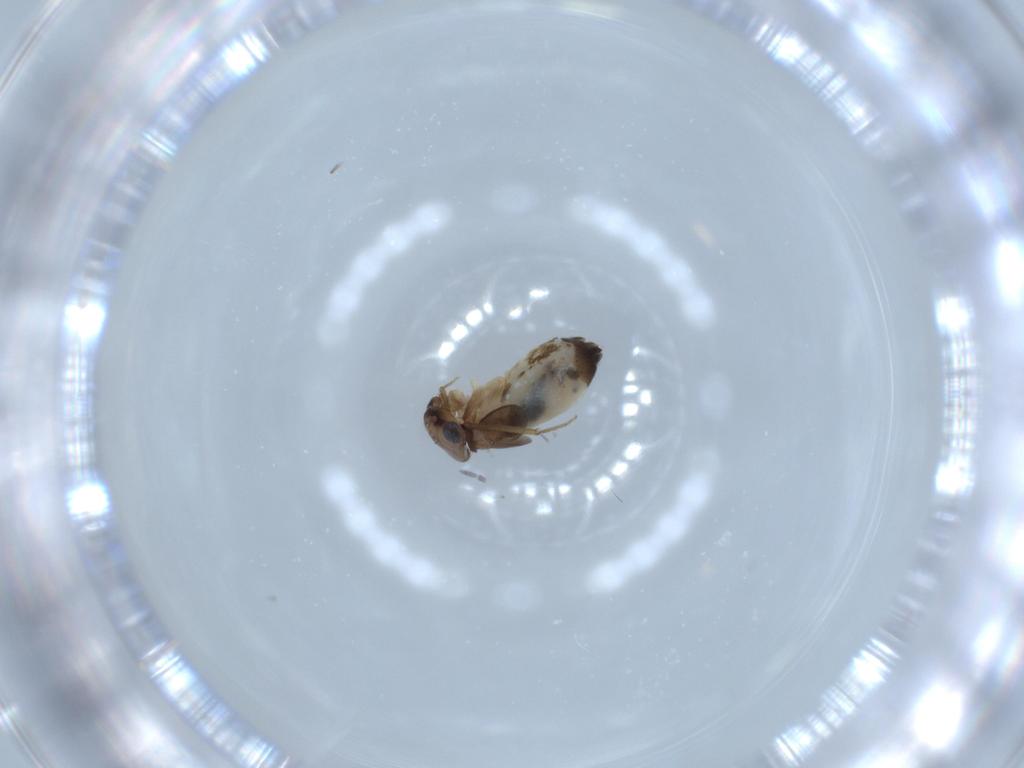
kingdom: Animalia
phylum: Arthropoda
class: Insecta
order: Psocodea
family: Lepidopsocidae
